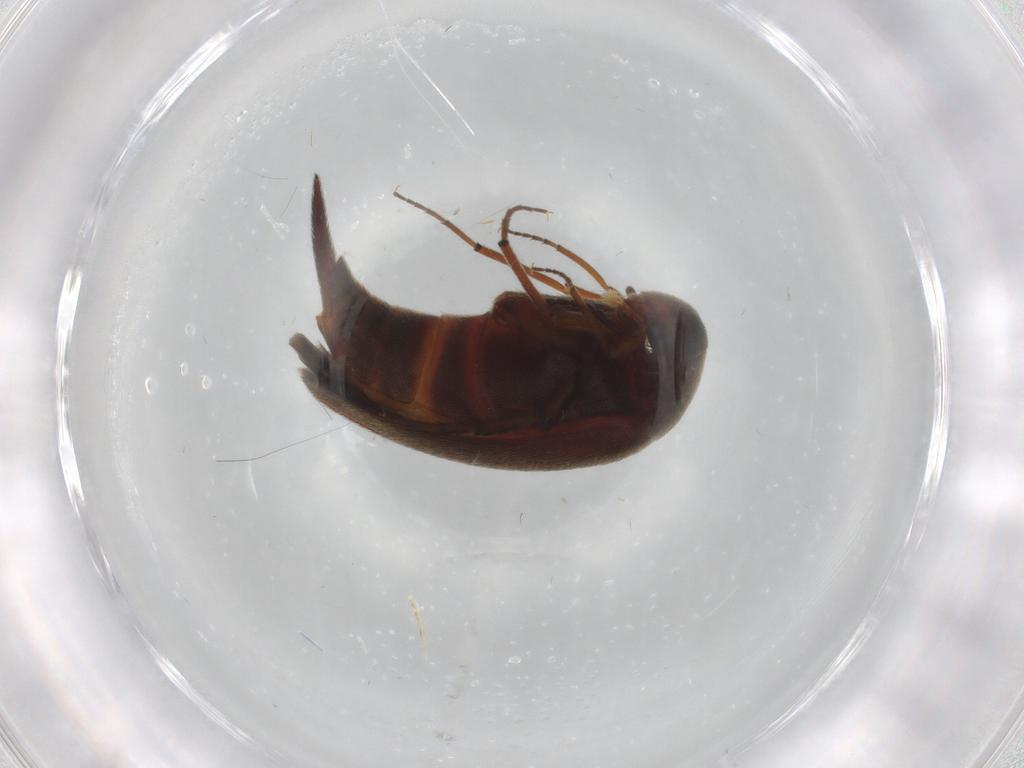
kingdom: Animalia
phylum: Arthropoda
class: Insecta
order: Coleoptera
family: Mordellidae
